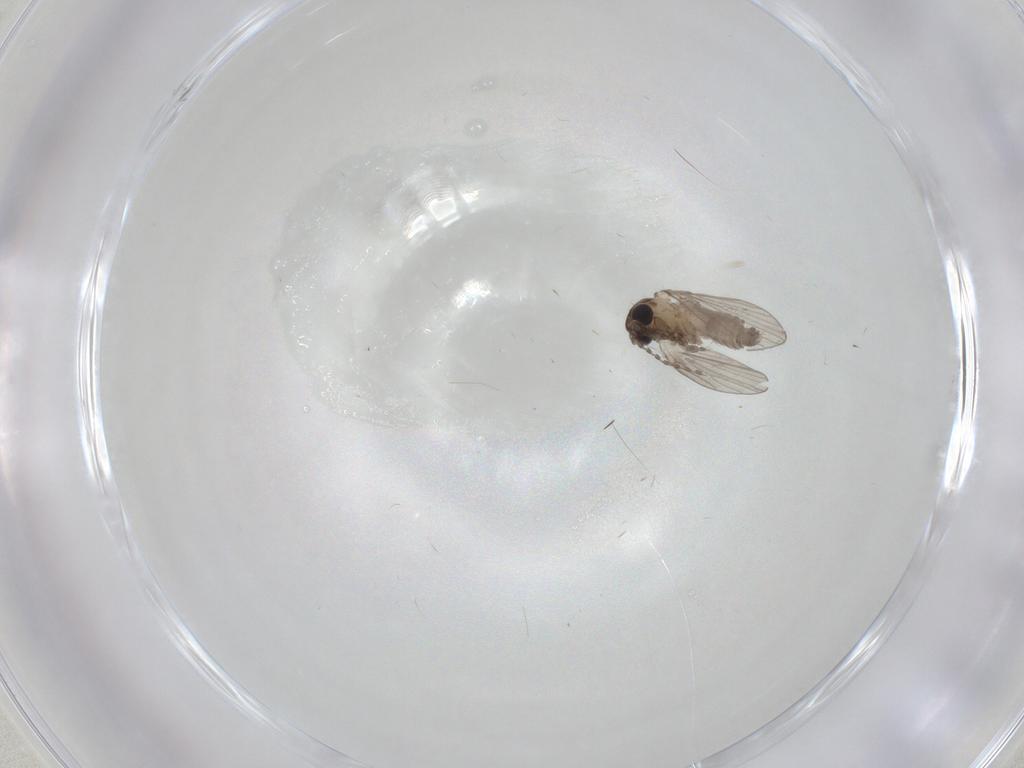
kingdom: Animalia
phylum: Arthropoda
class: Insecta
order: Diptera
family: Psychodidae
